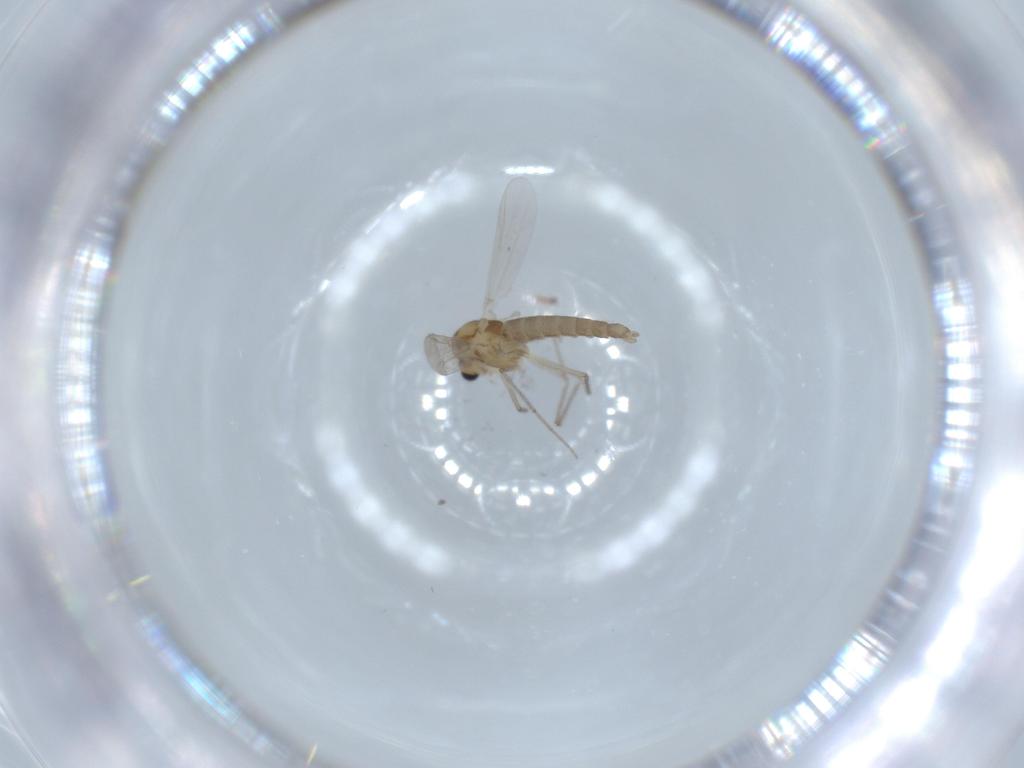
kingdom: Animalia
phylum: Arthropoda
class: Insecta
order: Diptera
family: Chironomidae
